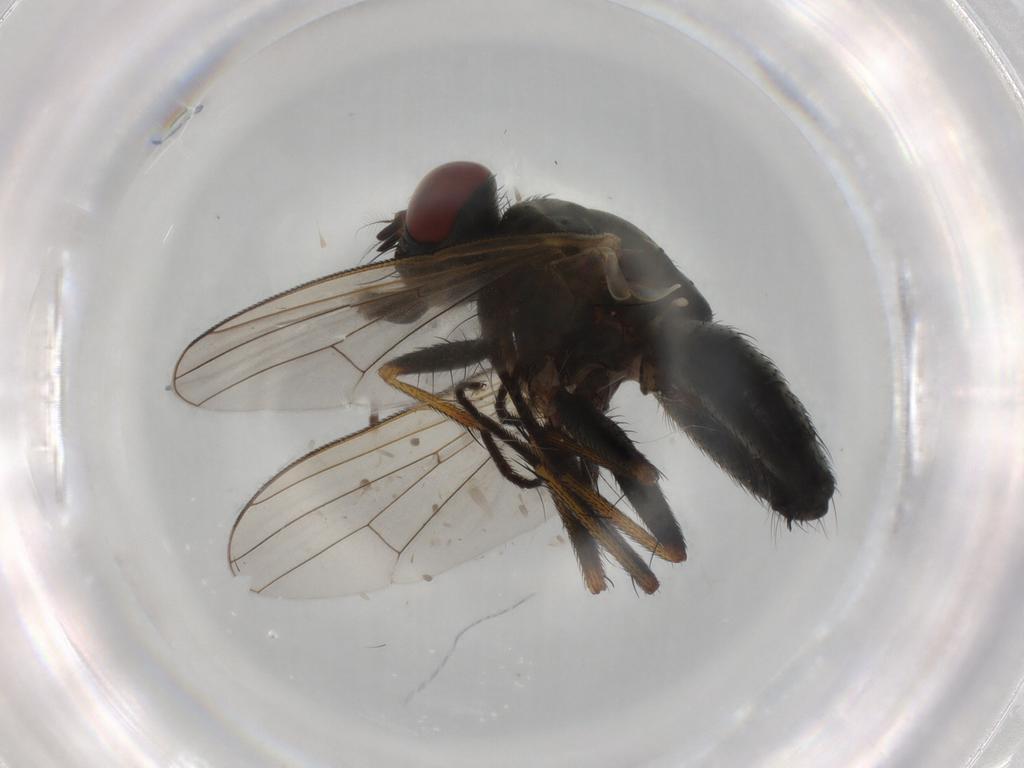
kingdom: Animalia
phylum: Arthropoda
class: Insecta
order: Diptera
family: Muscidae
